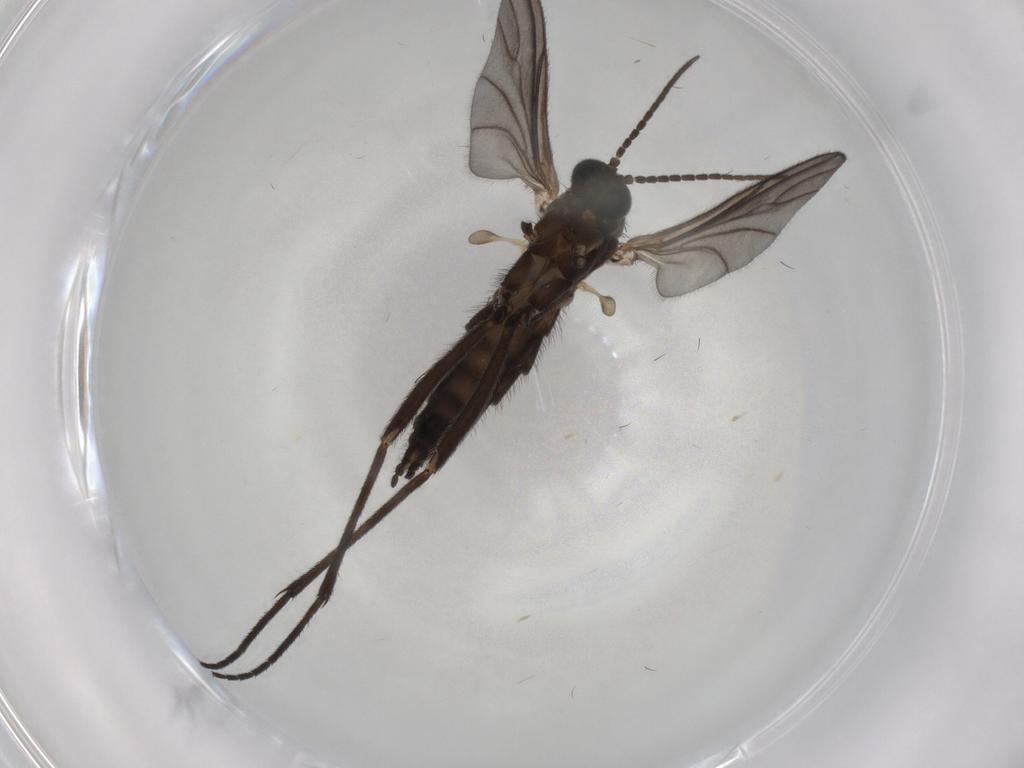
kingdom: Animalia
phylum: Arthropoda
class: Insecta
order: Diptera
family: Sciaridae
